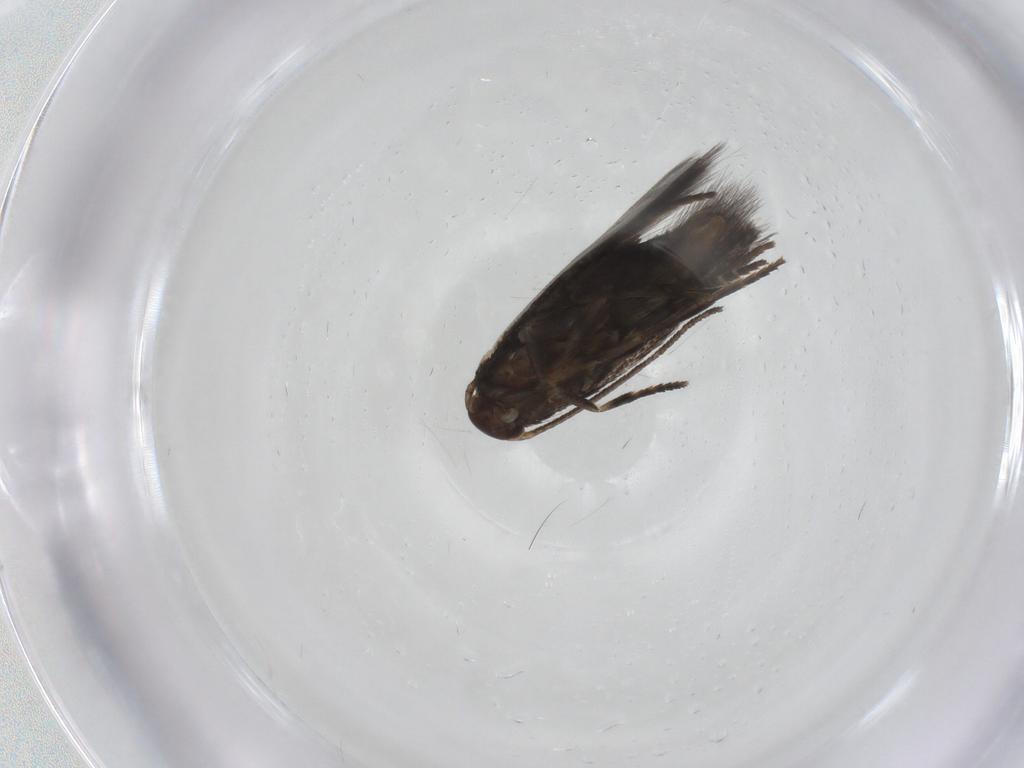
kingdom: Animalia
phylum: Arthropoda
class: Insecta
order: Lepidoptera
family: Elachistidae
